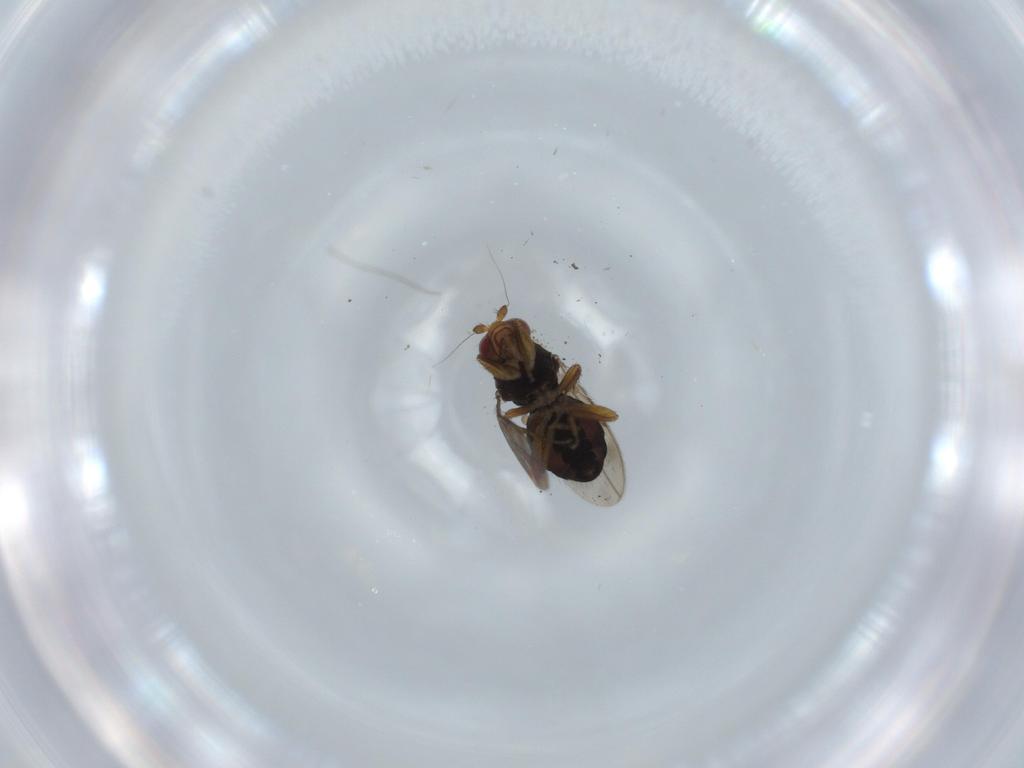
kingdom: Animalia
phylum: Arthropoda
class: Insecta
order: Diptera
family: Sphaeroceridae
